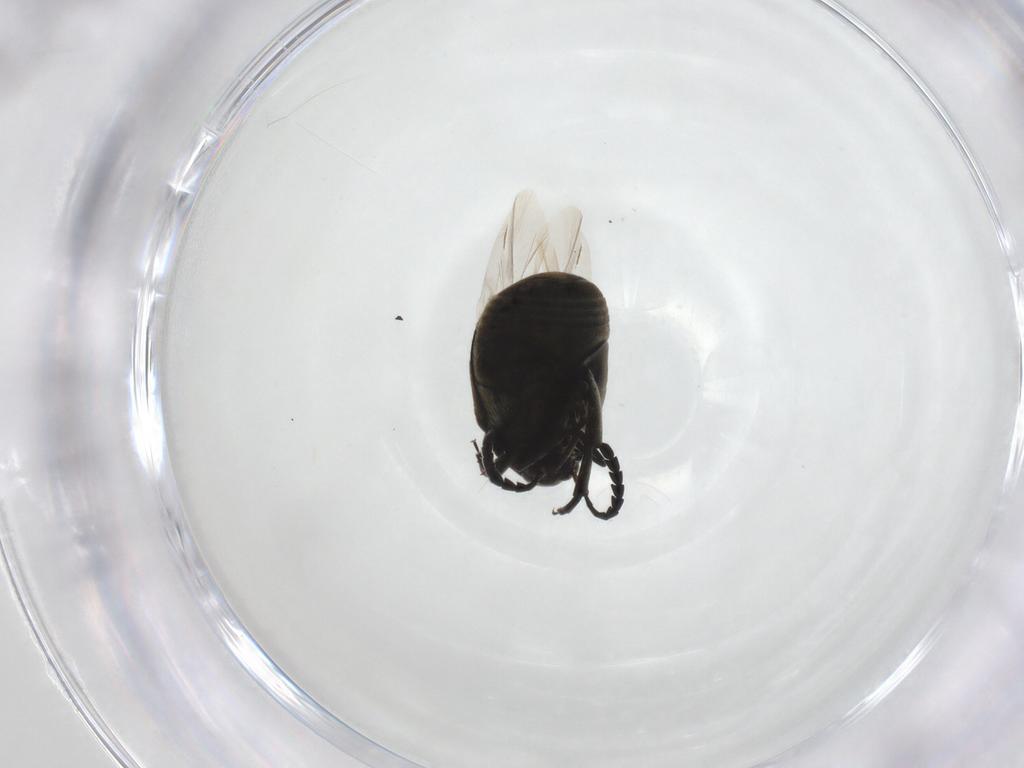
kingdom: Animalia
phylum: Arthropoda
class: Insecta
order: Coleoptera
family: Chrysomelidae
